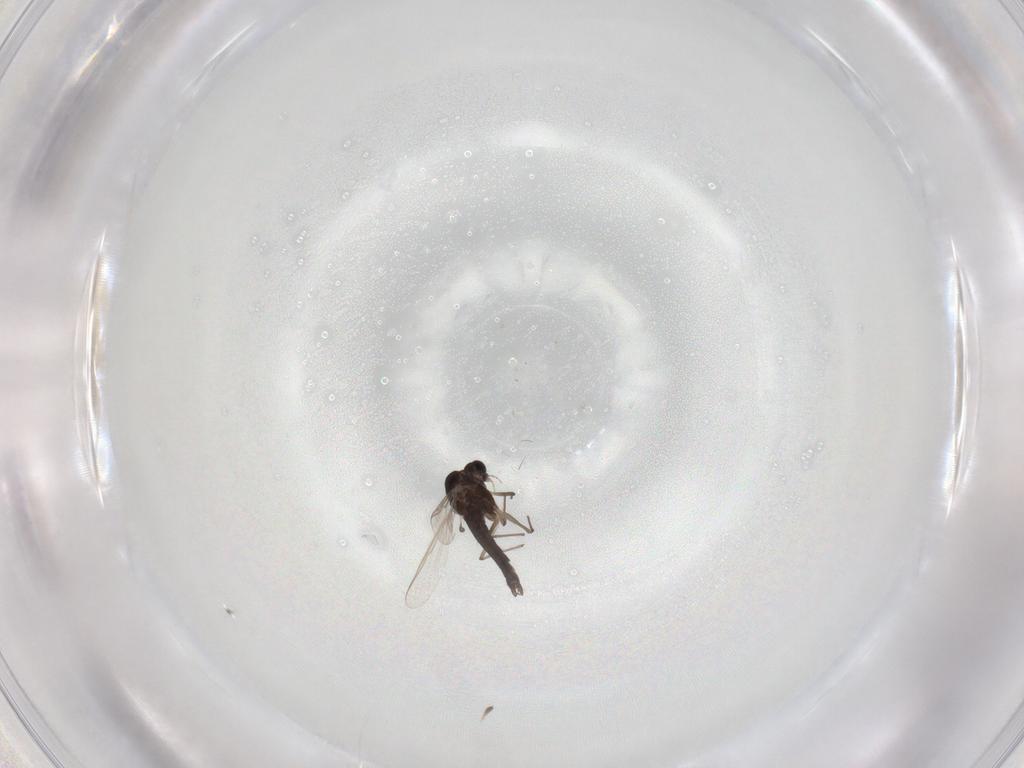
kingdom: Animalia
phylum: Arthropoda
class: Insecta
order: Diptera
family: Chironomidae
